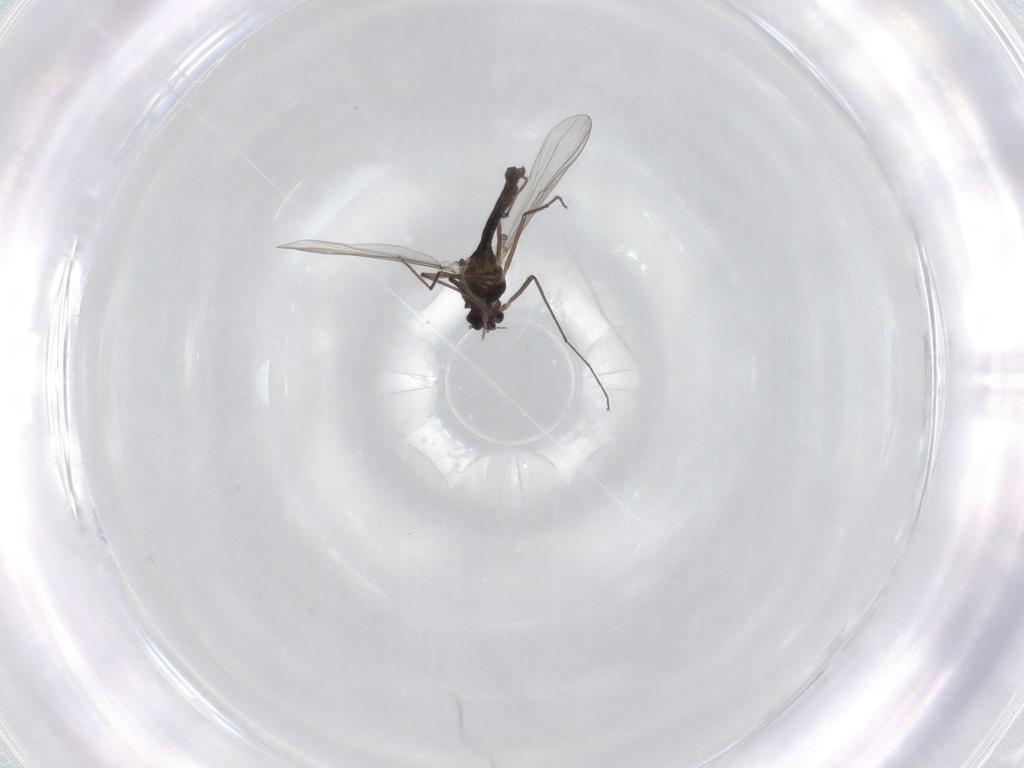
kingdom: Animalia
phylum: Arthropoda
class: Insecta
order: Diptera
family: Chironomidae
